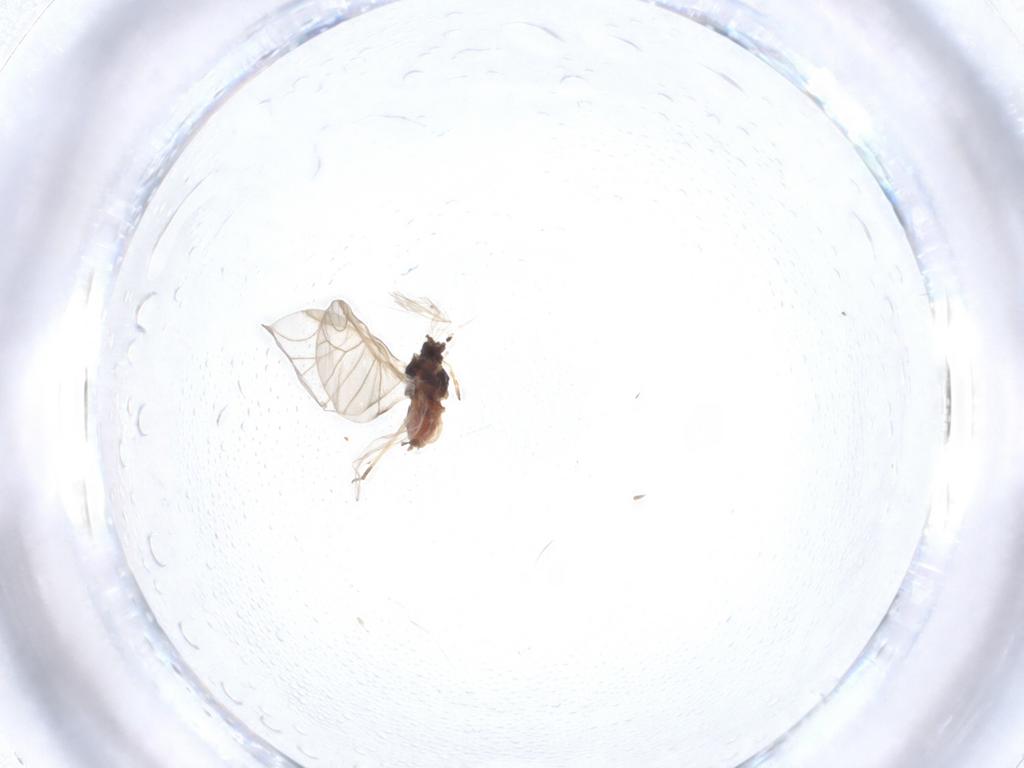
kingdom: Animalia
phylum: Arthropoda
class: Insecta
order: Hemiptera
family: Aphididae
